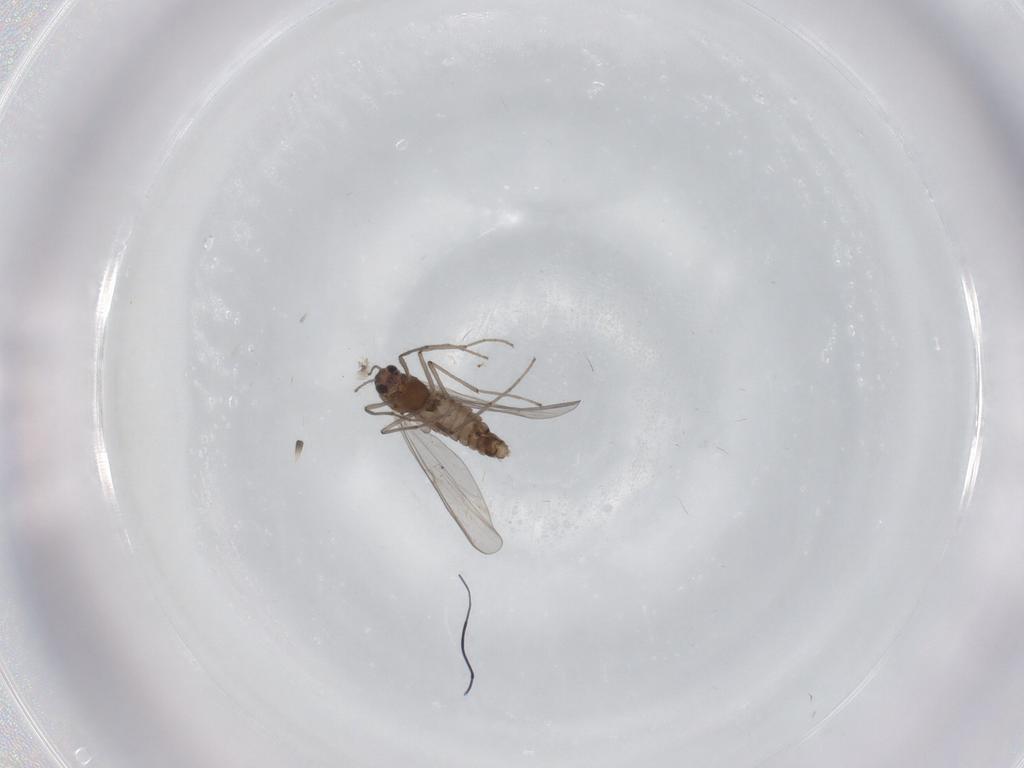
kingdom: Animalia
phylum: Arthropoda
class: Insecta
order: Diptera
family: Chironomidae
